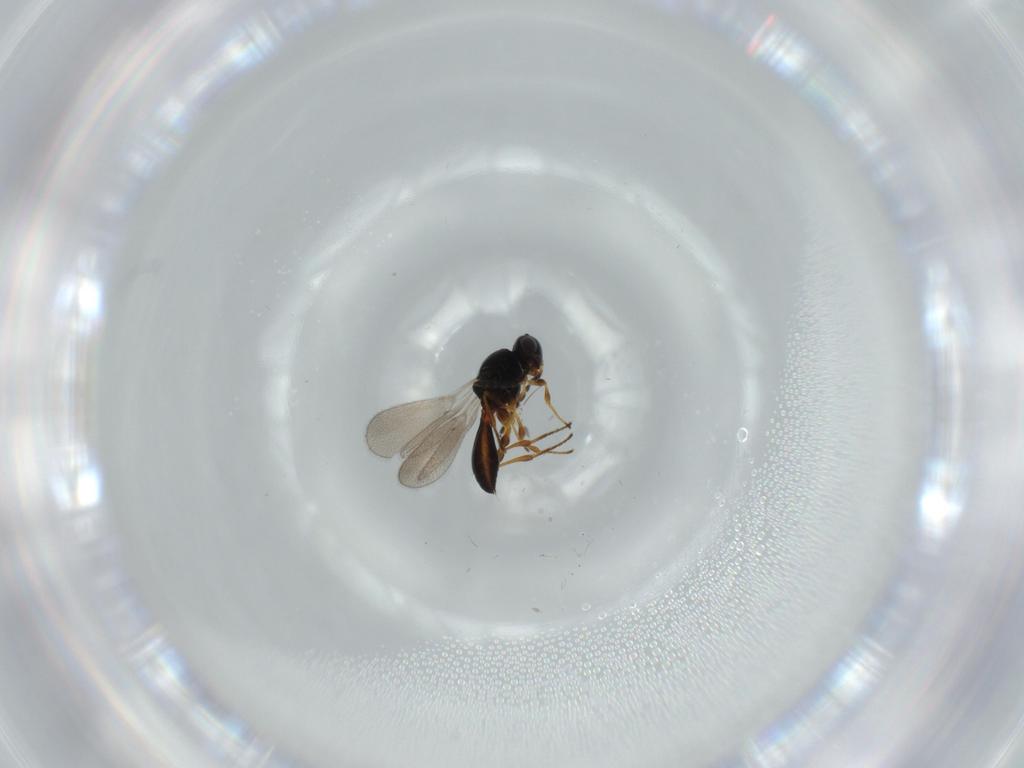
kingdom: Animalia
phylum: Arthropoda
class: Insecta
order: Hymenoptera
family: Platygastridae
